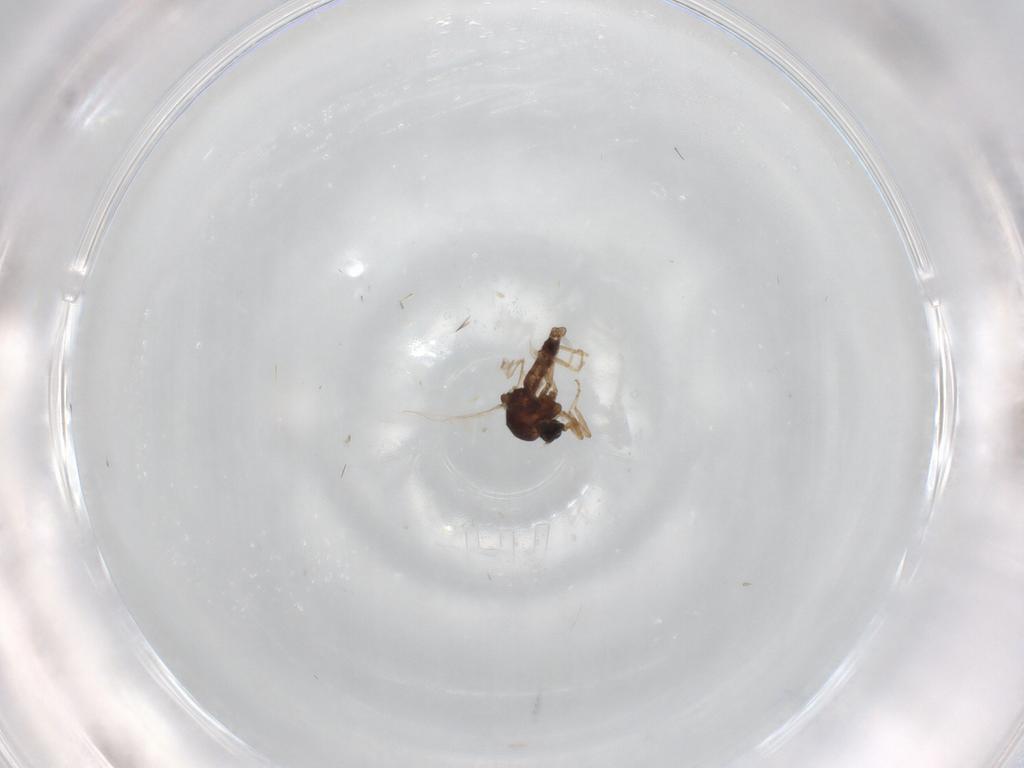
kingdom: Animalia
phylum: Arthropoda
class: Insecta
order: Diptera
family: Ceratopogonidae
